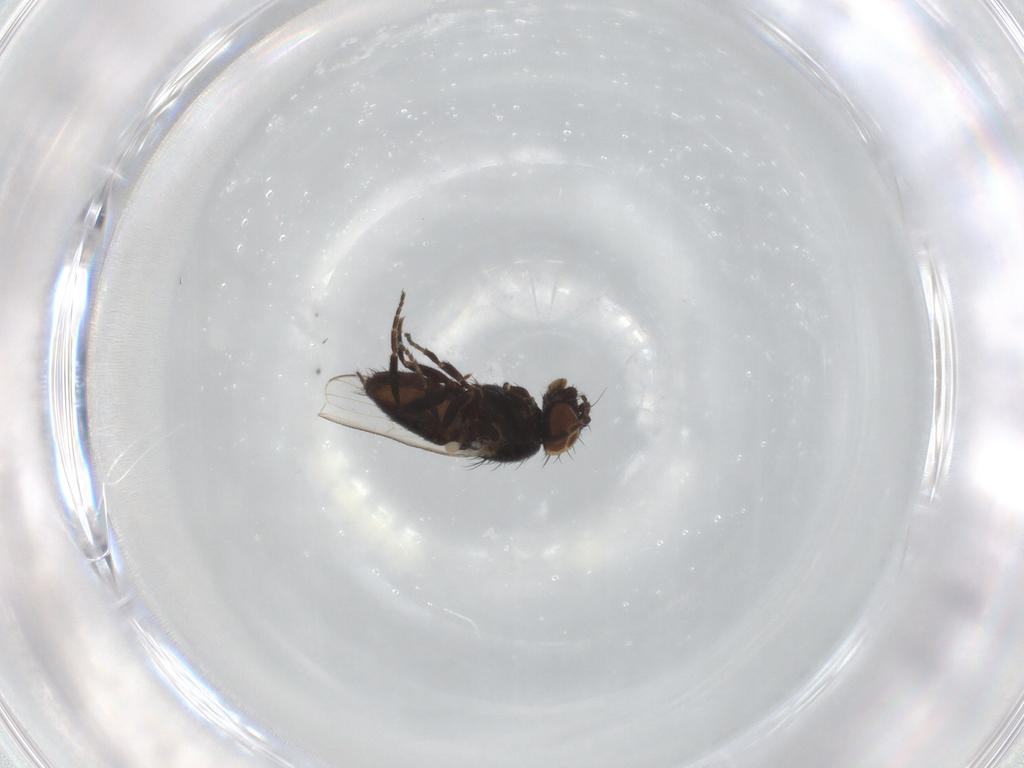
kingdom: Animalia
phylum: Arthropoda
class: Insecta
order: Diptera
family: Milichiidae
